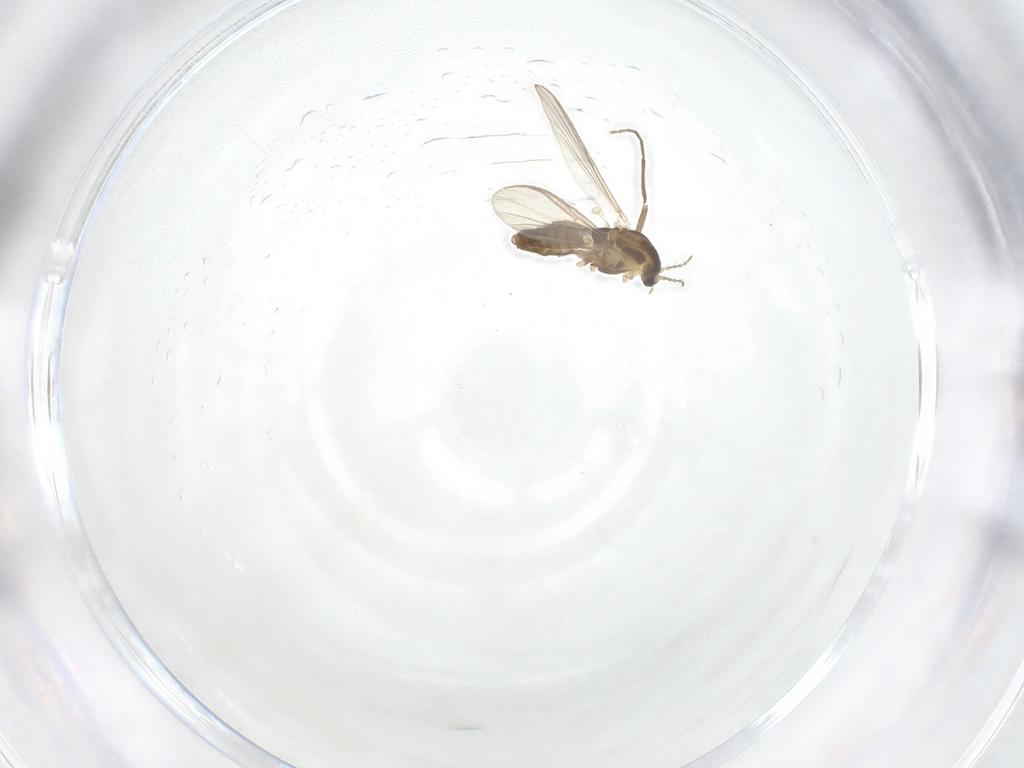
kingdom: Animalia
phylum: Arthropoda
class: Insecta
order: Diptera
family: Chironomidae
